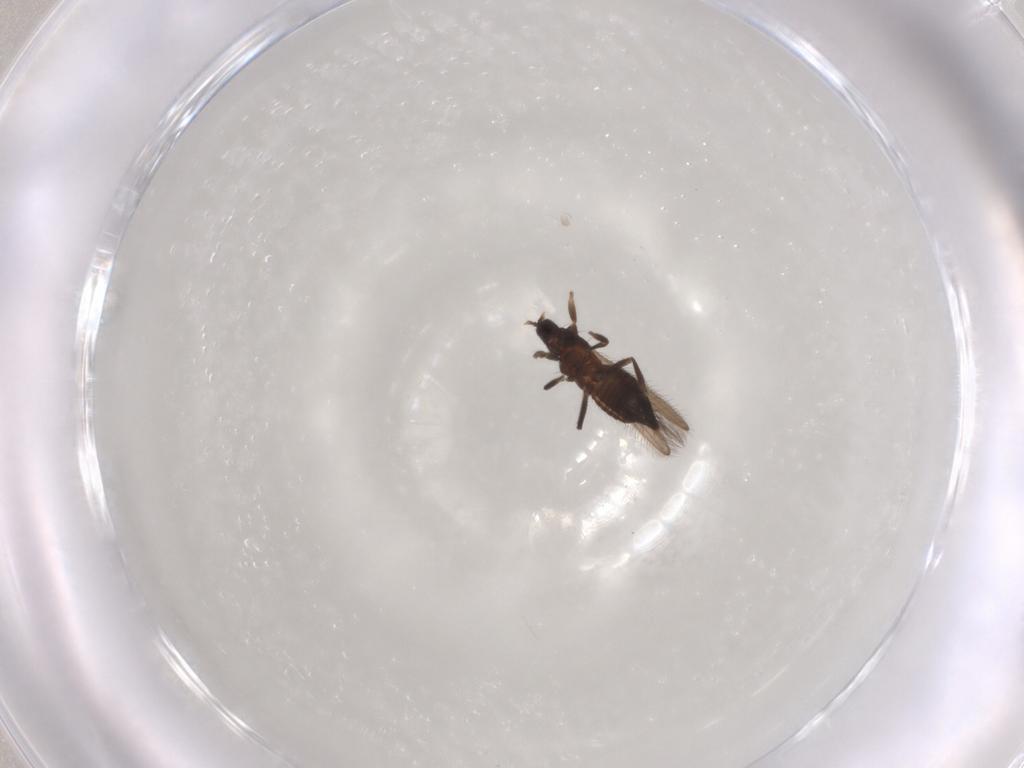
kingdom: Animalia
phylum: Arthropoda
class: Insecta
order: Thysanoptera
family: Melanthripidae
